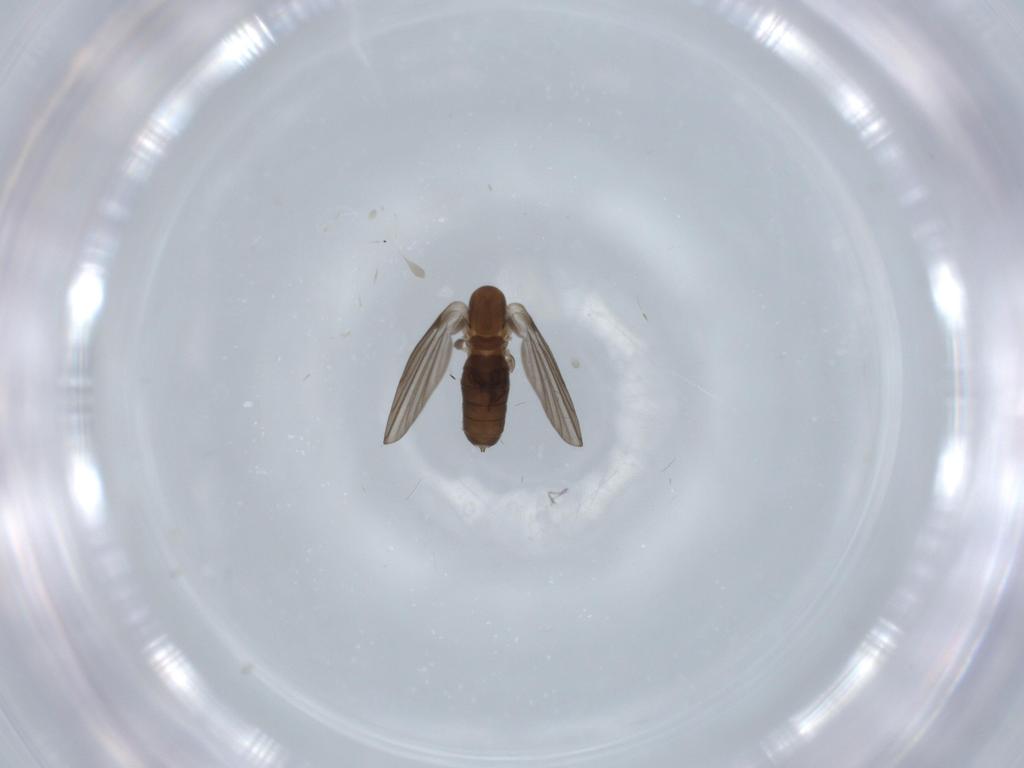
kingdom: Animalia
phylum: Arthropoda
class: Insecta
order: Diptera
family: Psychodidae
